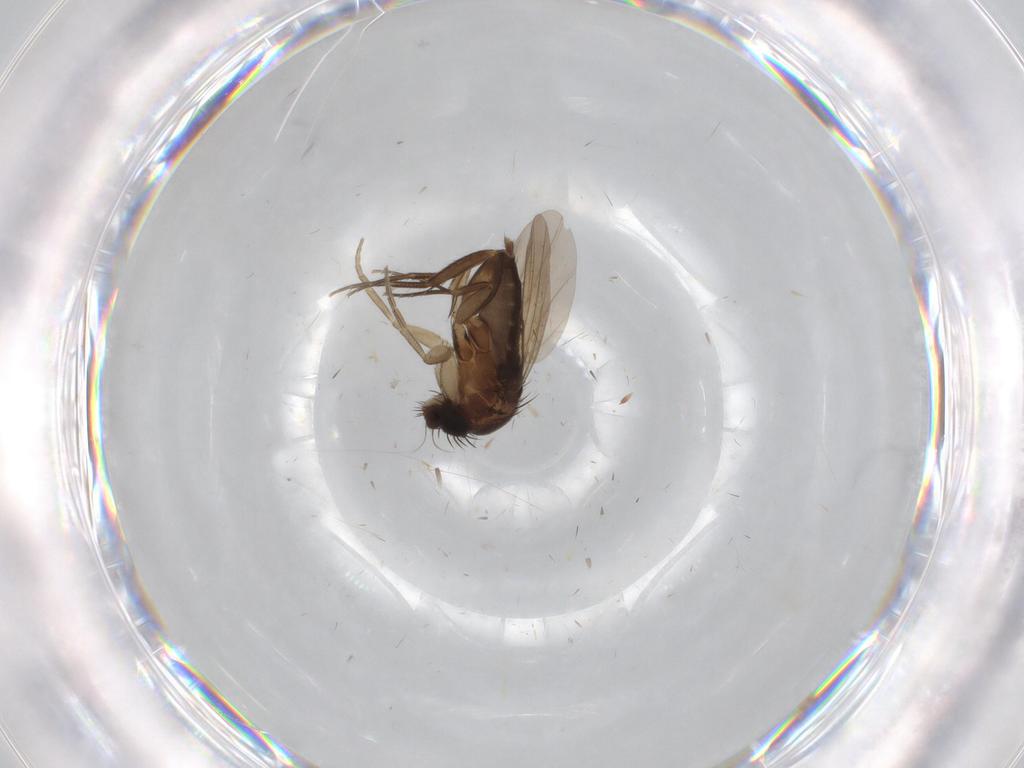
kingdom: Animalia
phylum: Arthropoda
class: Insecta
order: Diptera
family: Phoridae
